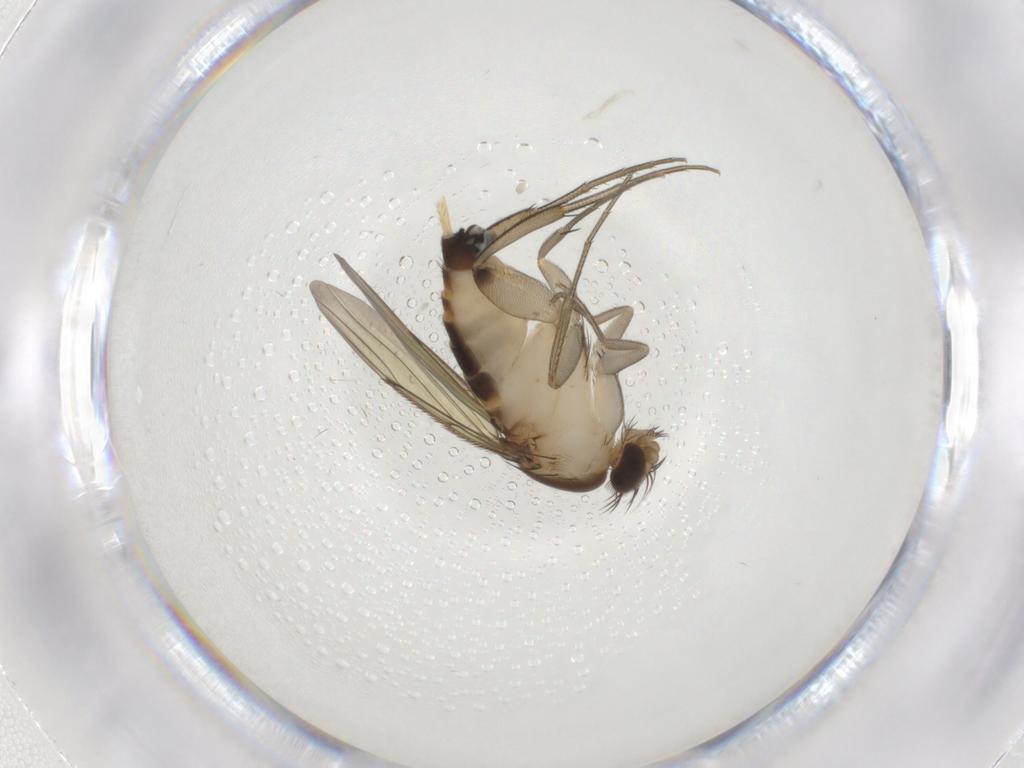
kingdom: Animalia
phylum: Arthropoda
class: Insecta
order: Diptera
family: Phoridae
